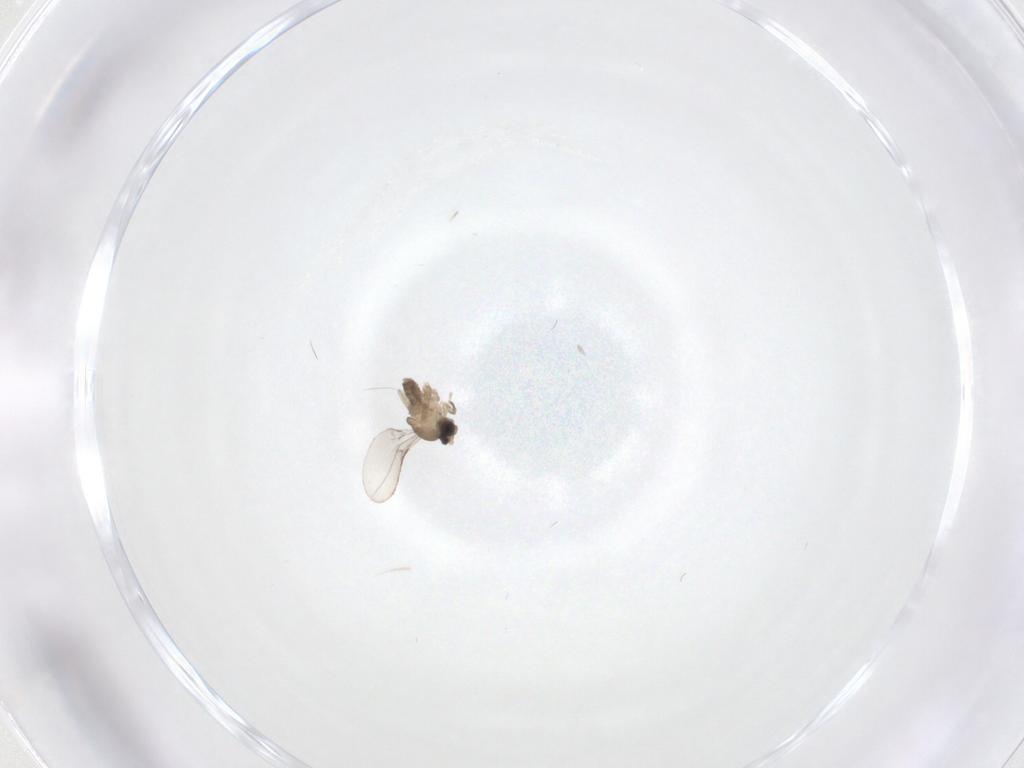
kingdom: Animalia
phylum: Arthropoda
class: Insecta
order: Diptera
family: Cecidomyiidae
